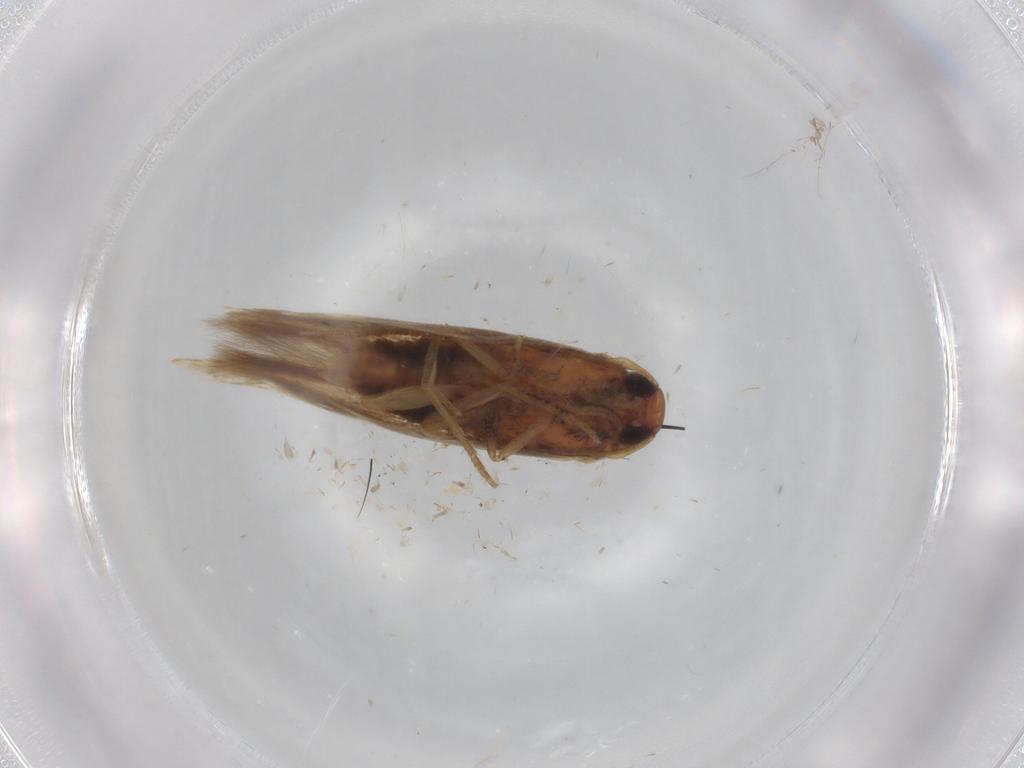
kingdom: Animalia
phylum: Arthropoda
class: Insecta
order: Lepidoptera
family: Cosmopterigidae
